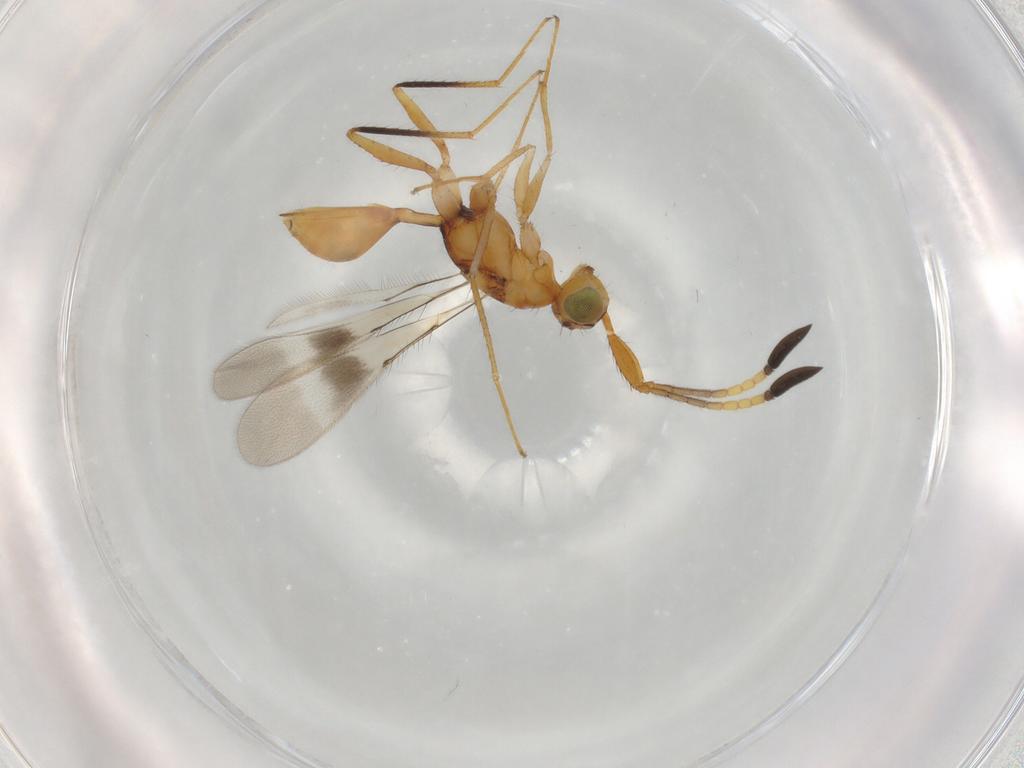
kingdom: Animalia
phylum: Arthropoda
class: Insecta
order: Hymenoptera
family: Mymaridae
